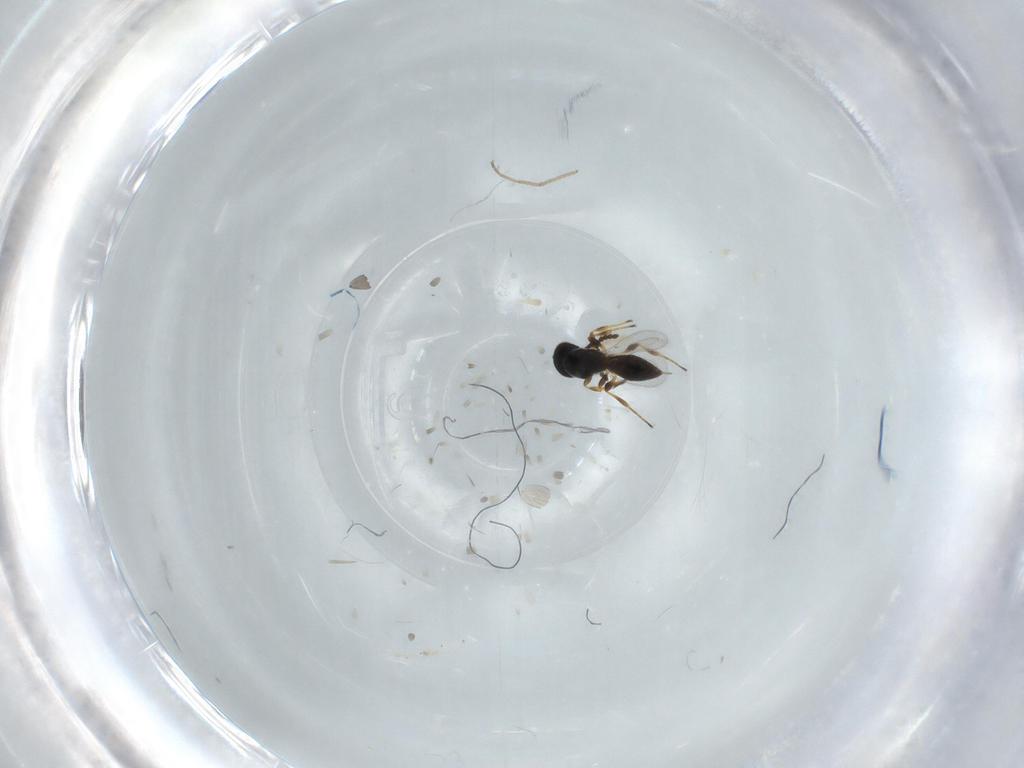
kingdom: Animalia
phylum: Arthropoda
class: Insecta
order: Hymenoptera
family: Platygastridae
